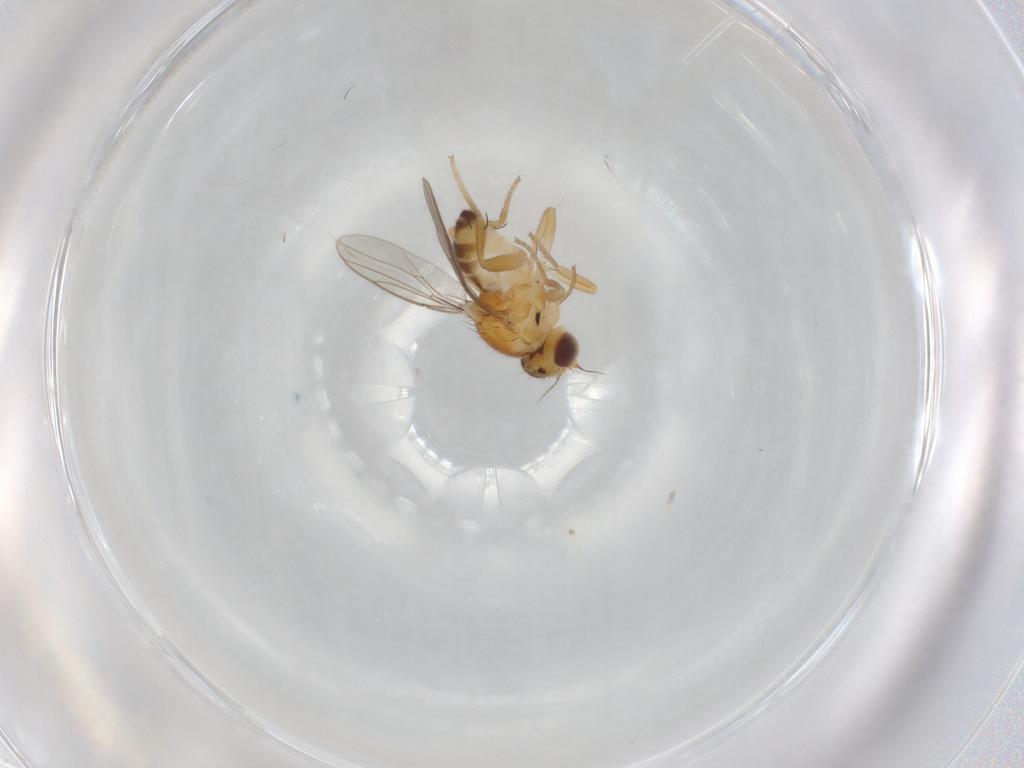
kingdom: Animalia
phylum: Arthropoda
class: Insecta
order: Diptera
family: Chloropidae
